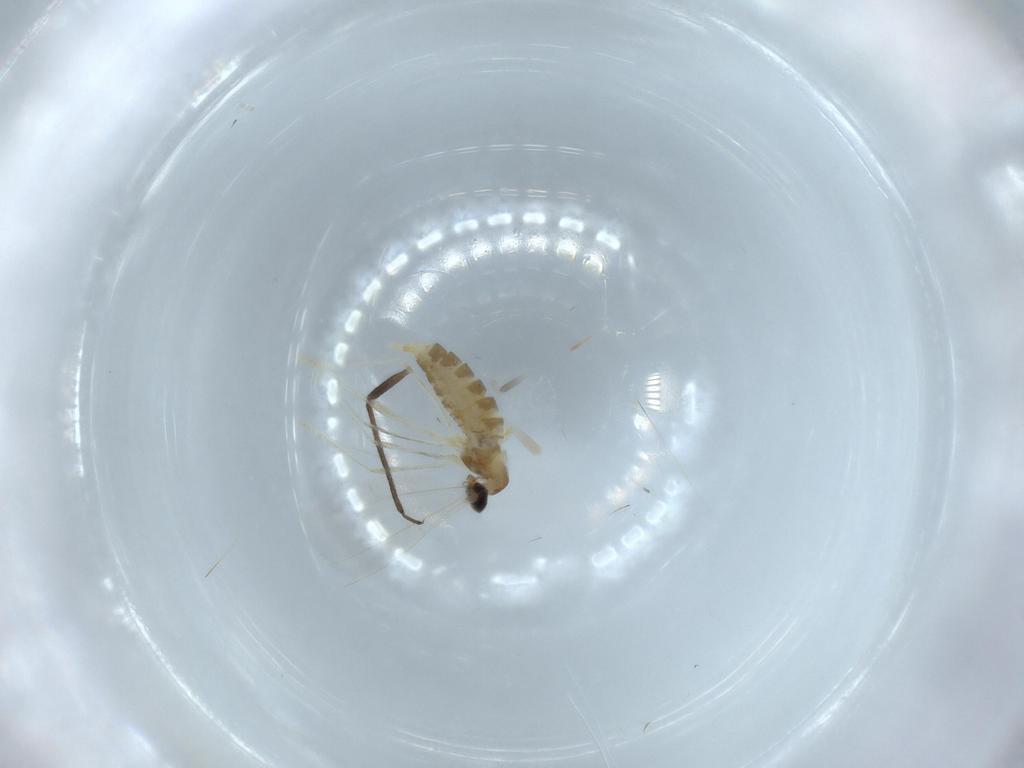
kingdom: Animalia
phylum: Arthropoda
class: Insecta
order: Diptera
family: Cecidomyiidae
